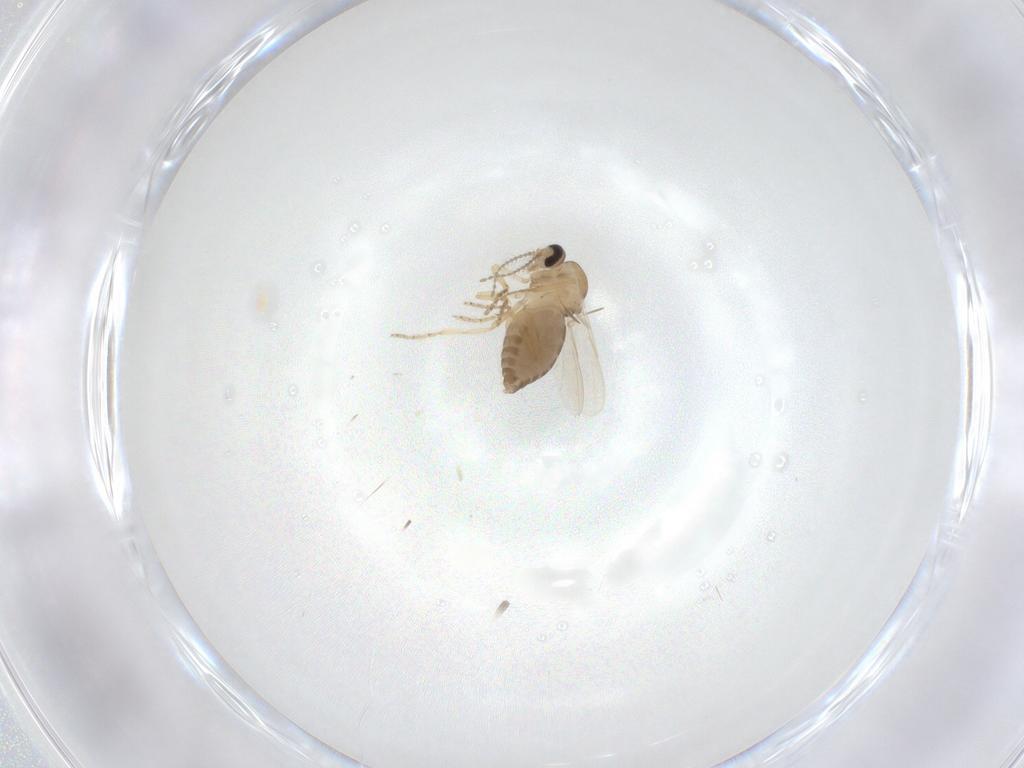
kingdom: Animalia
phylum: Arthropoda
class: Insecta
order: Diptera
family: Ceratopogonidae
